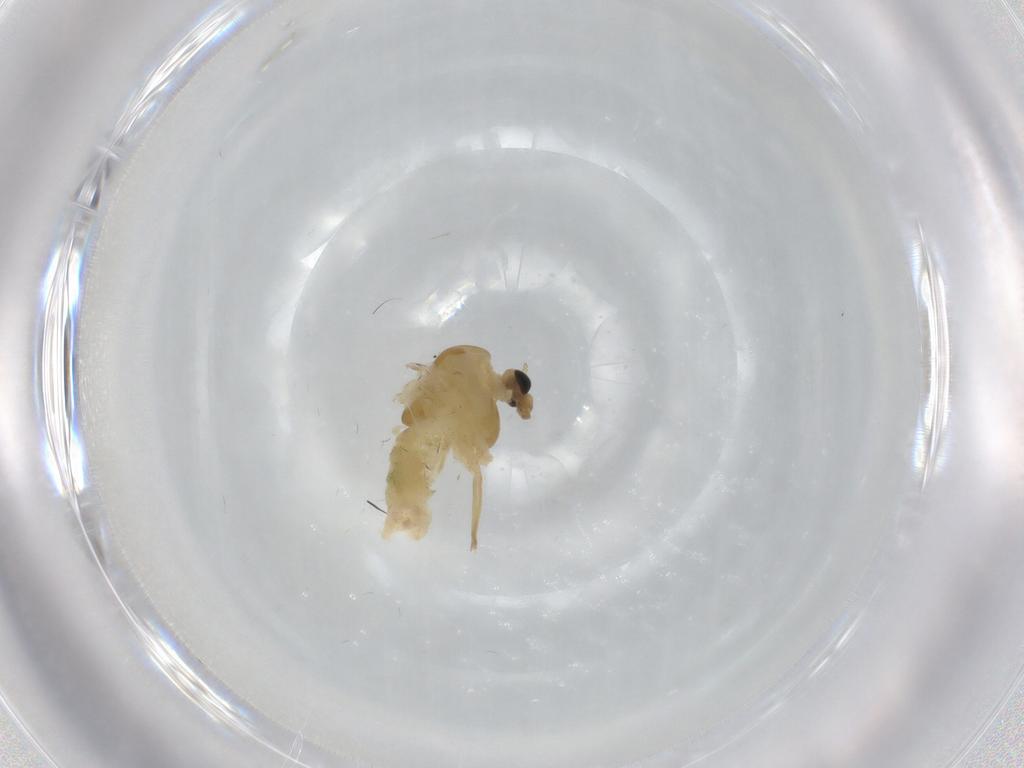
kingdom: Animalia
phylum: Arthropoda
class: Insecta
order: Diptera
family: Chironomidae
